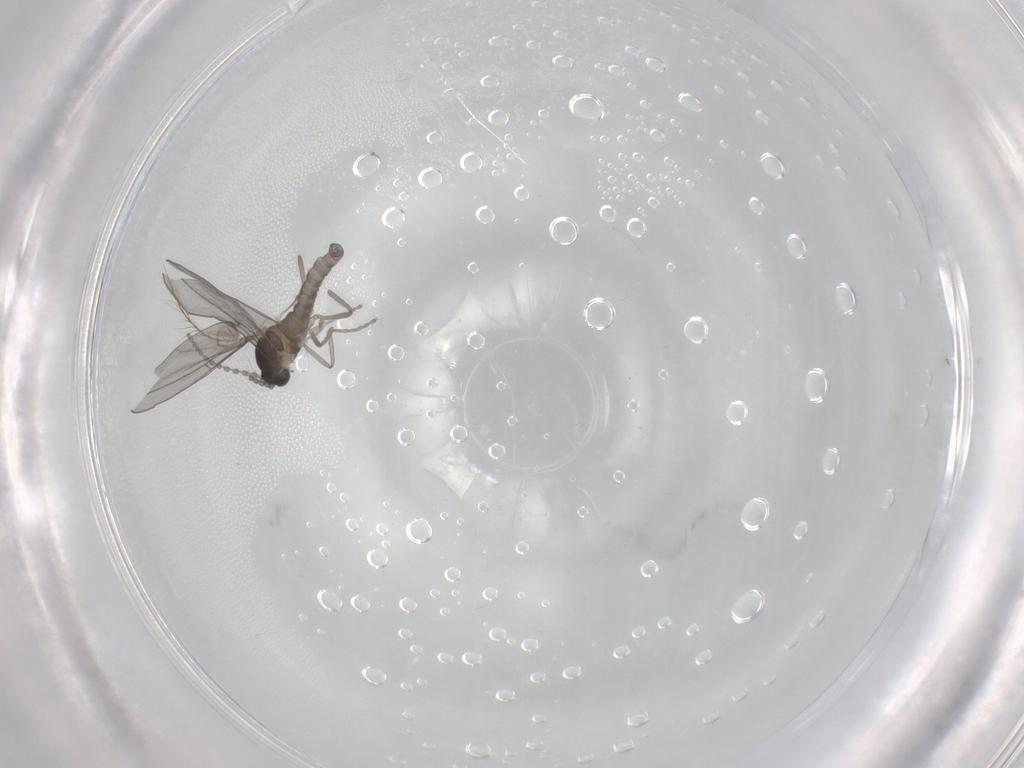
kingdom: Animalia
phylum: Arthropoda
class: Insecta
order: Diptera
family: Cecidomyiidae
